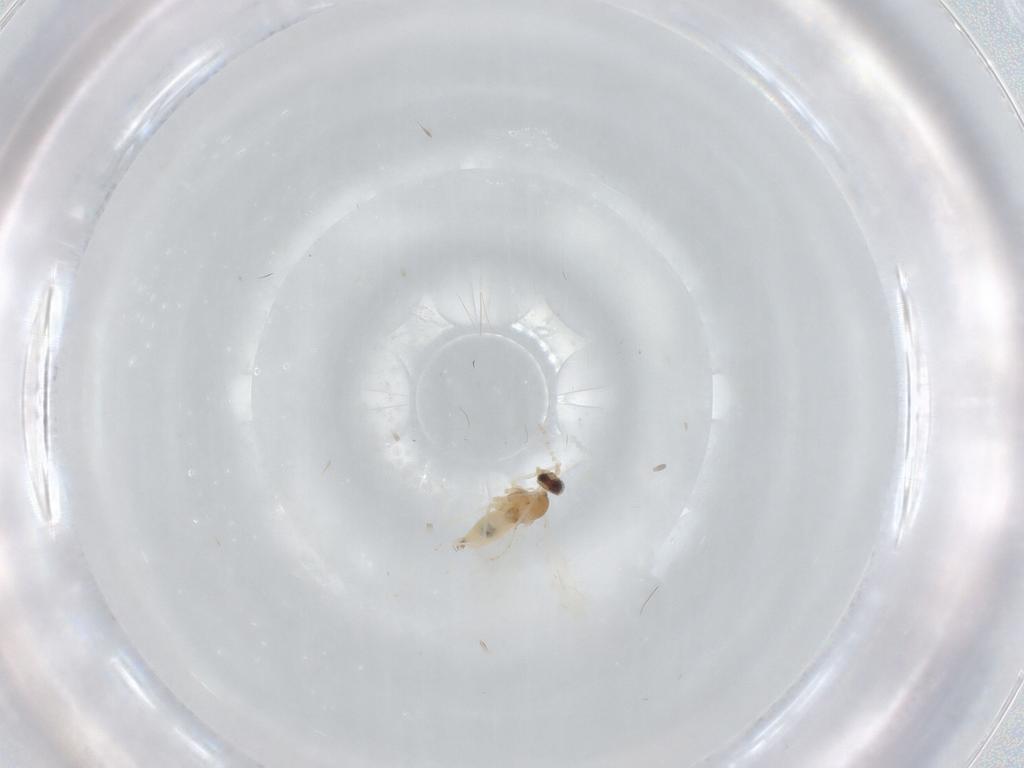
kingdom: Animalia
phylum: Arthropoda
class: Insecta
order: Diptera
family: Cecidomyiidae
